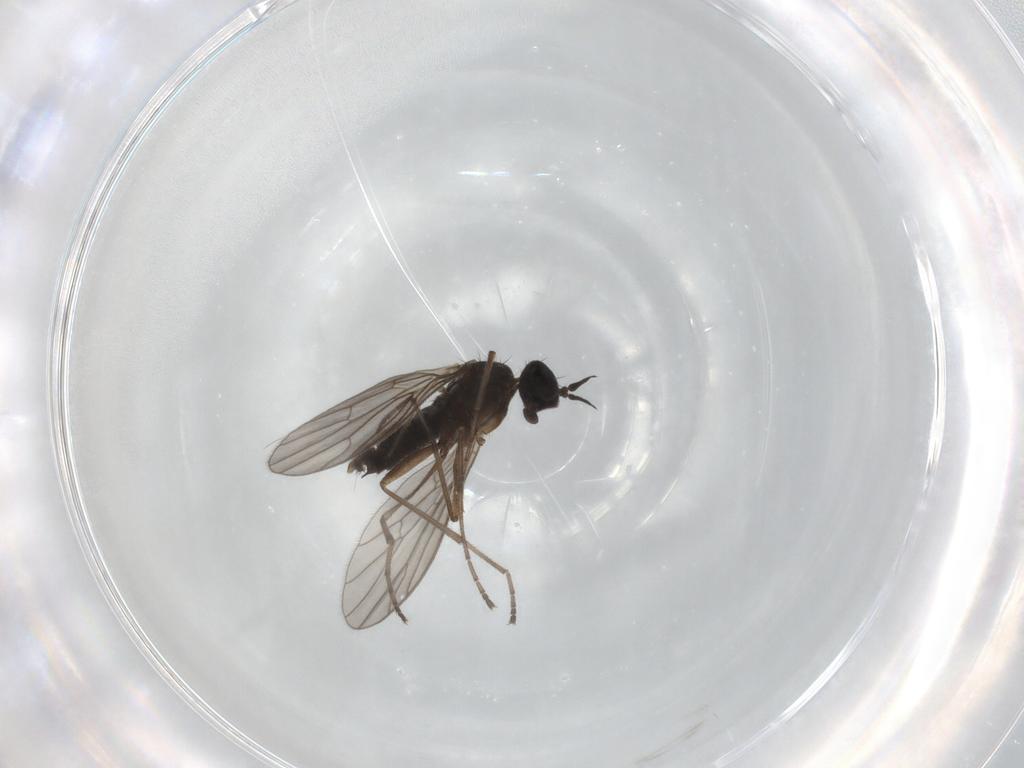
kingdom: Animalia
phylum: Arthropoda
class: Insecta
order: Diptera
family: Empididae
